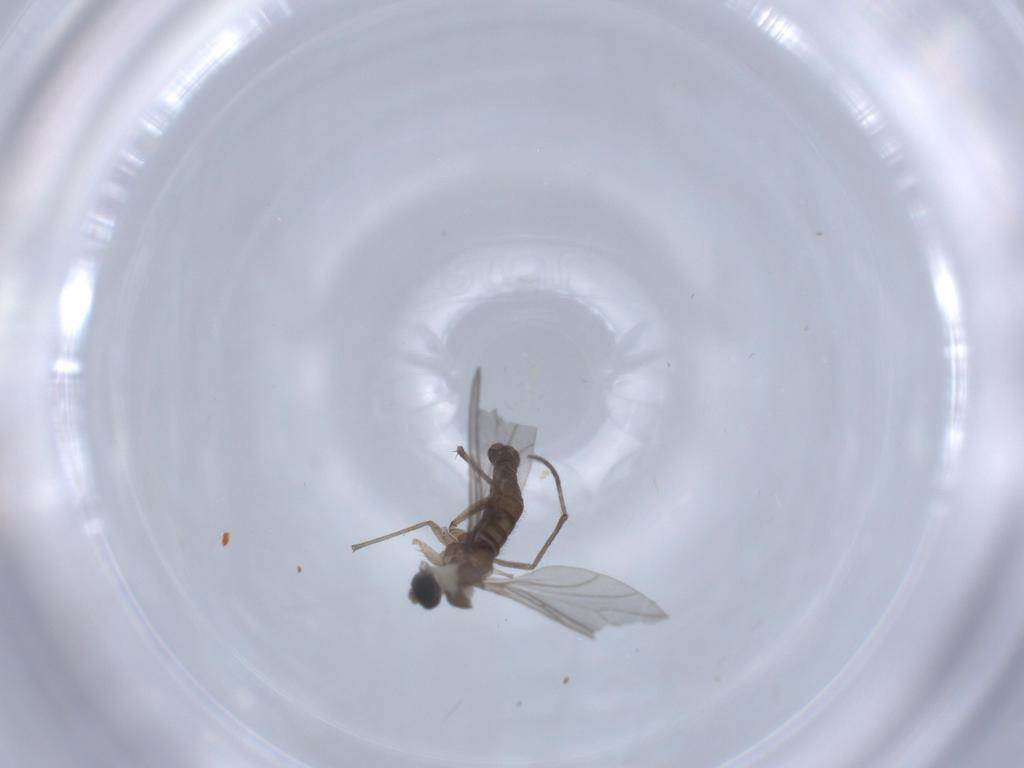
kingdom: Animalia
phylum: Arthropoda
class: Insecta
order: Diptera
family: Sciaridae
